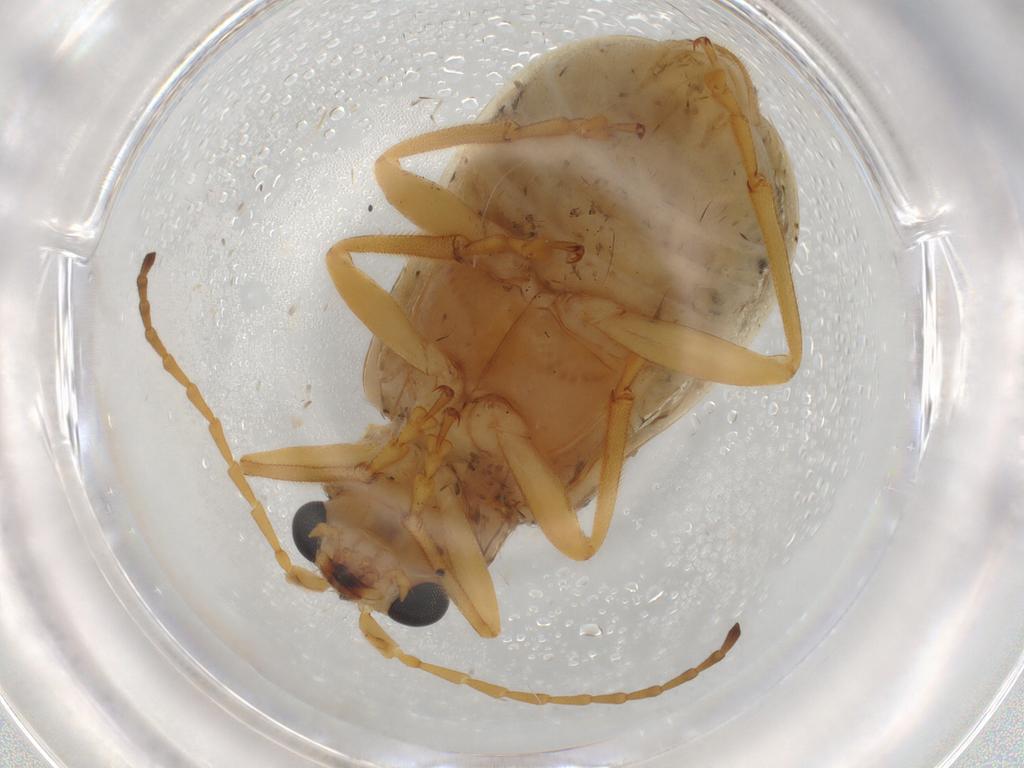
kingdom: Animalia
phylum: Arthropoda
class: Insecta
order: Coleoptera
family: Chrysomelidae
